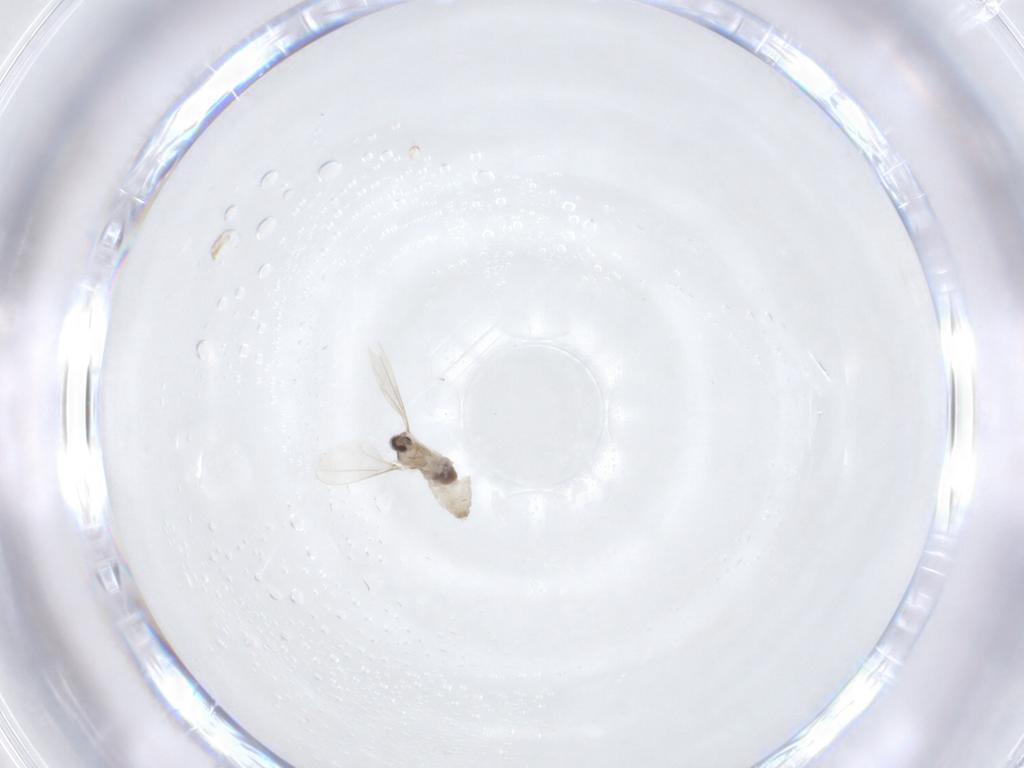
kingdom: Animalia
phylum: Arthropoda
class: Insecta
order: Diptera
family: Cecidomyiidae
